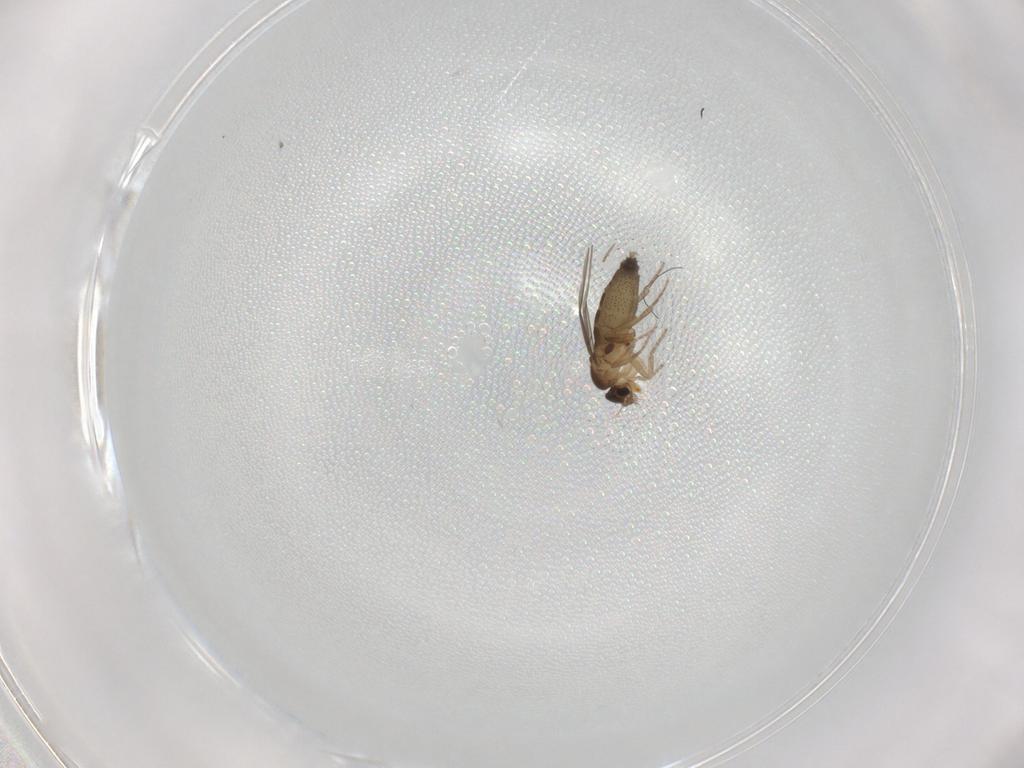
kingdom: Animalia
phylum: Arthropoda
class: Insecta
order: Diptera
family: Phoridae
